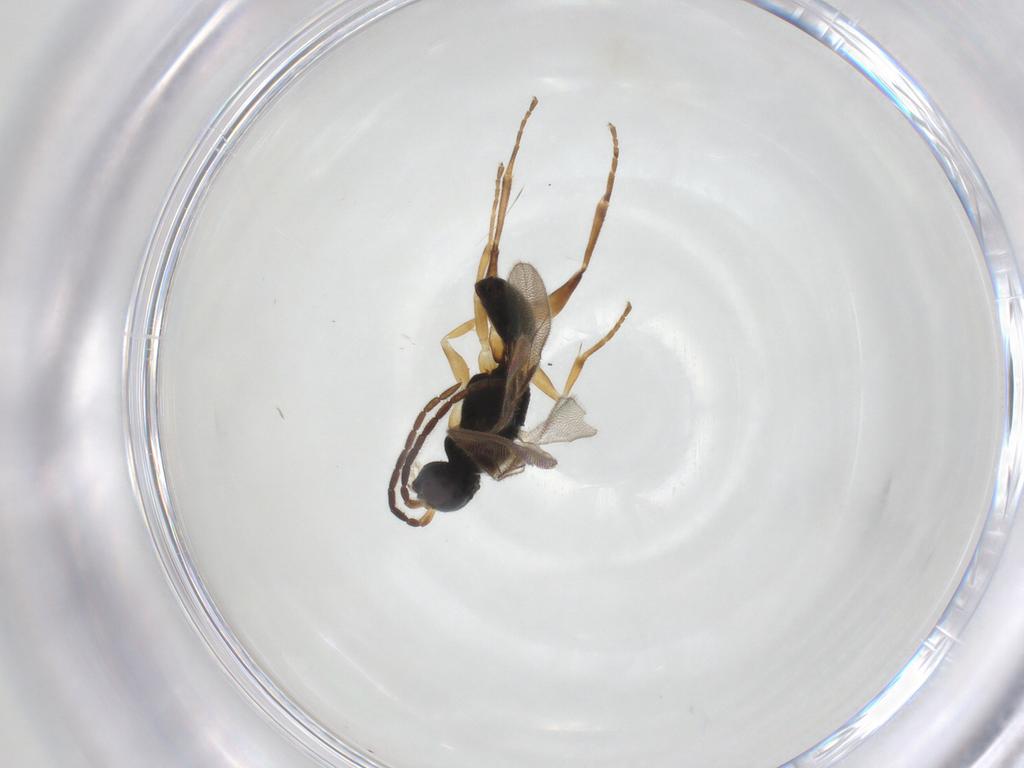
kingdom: Animalia
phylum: Arthropoda
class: Insecta
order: Hymenoptera
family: Dryinidae
